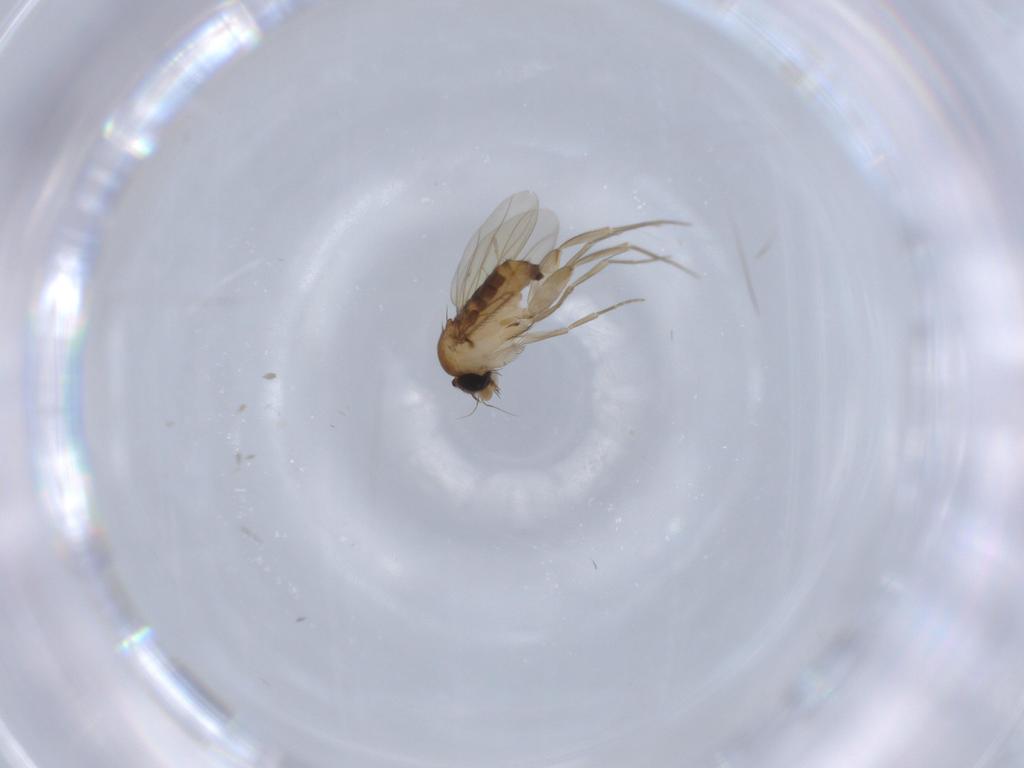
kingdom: Animalia
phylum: Arthropoda
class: Insecta
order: Diptera
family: Phoridae
